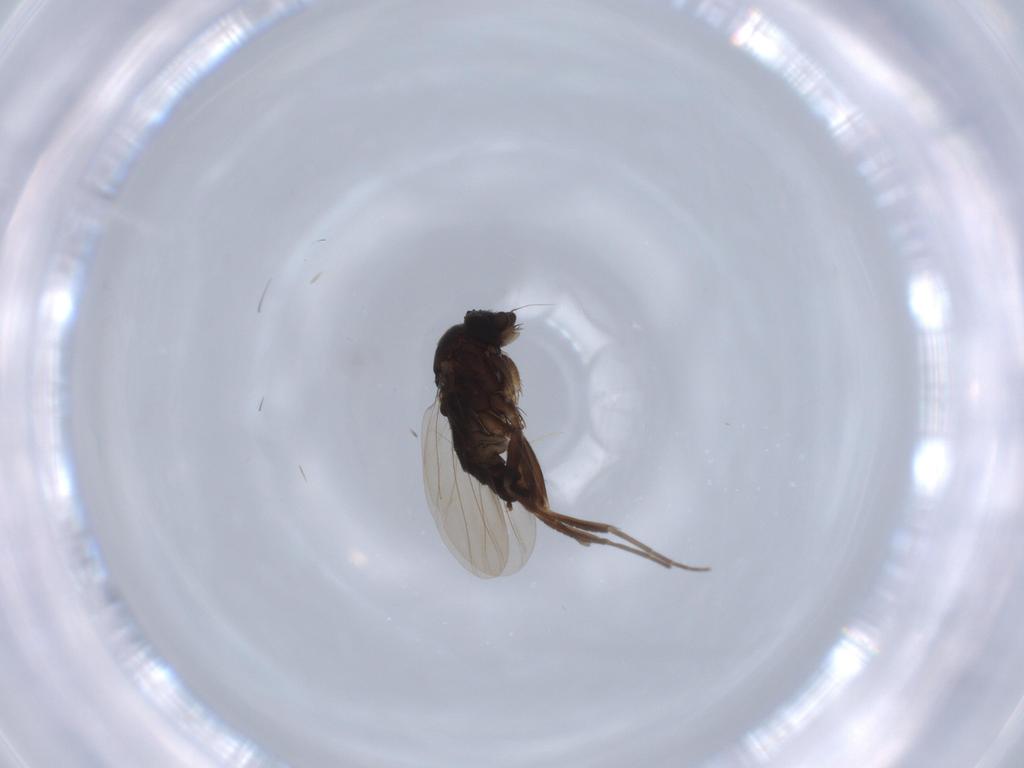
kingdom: Animalia
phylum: Arthropoda
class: Insecta
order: Diptera
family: Phoridae
